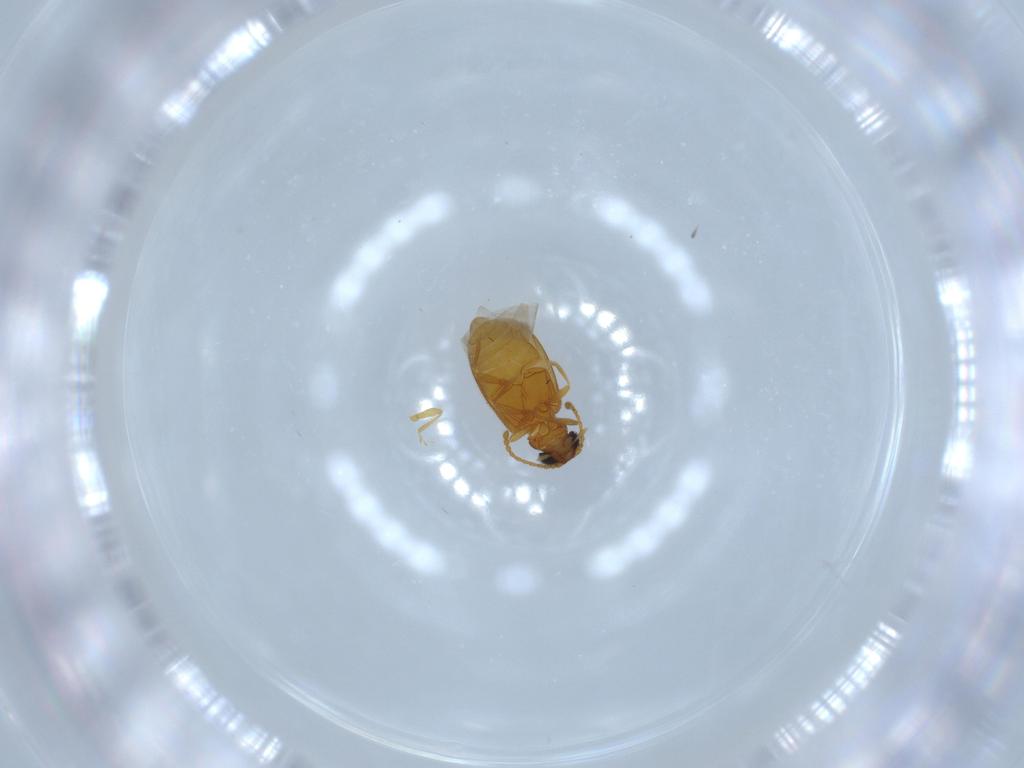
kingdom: Animalia
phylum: Arthropoda
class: Insecta
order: Coleoptera
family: Aderidae
